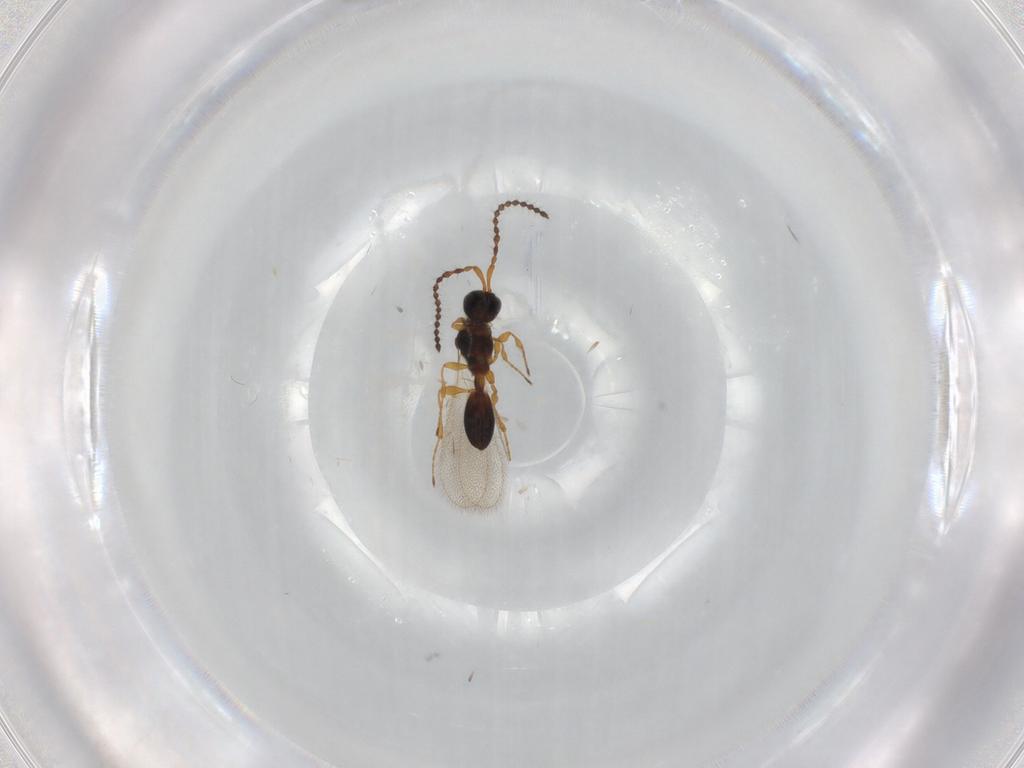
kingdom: Animalia
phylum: Arthropoda
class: Insecta
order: Hymenoptera
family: Diapriidae
